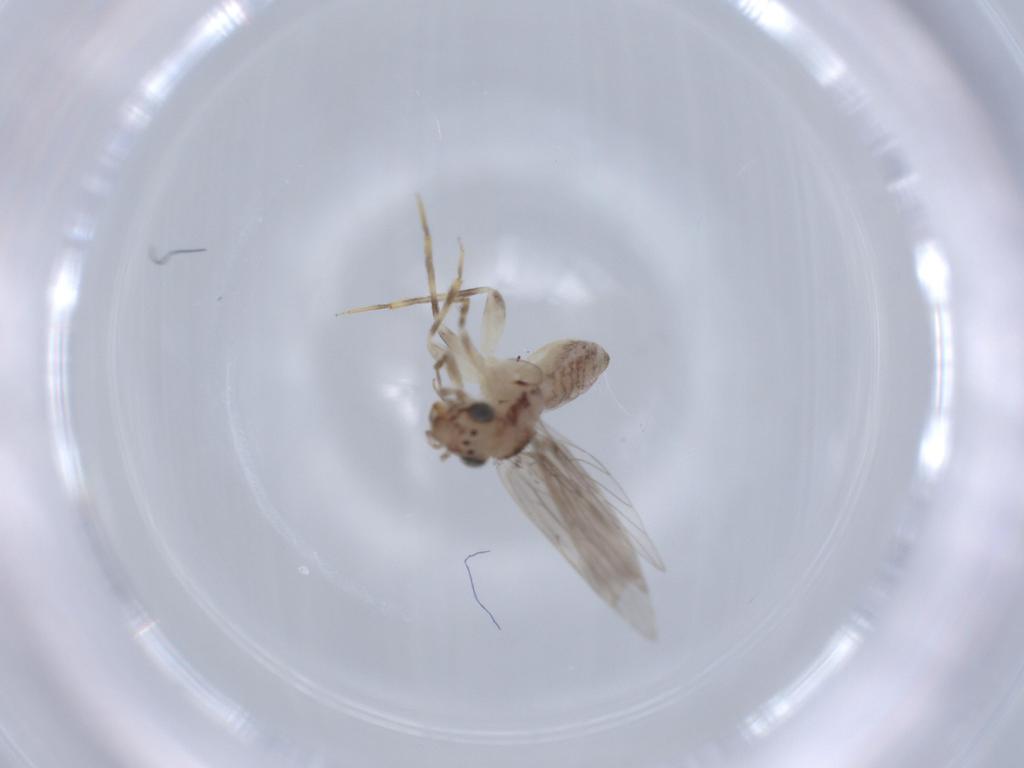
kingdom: Animalia
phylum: Arthropoda
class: Insecta
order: Psocodea
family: Lepidopsocidae
